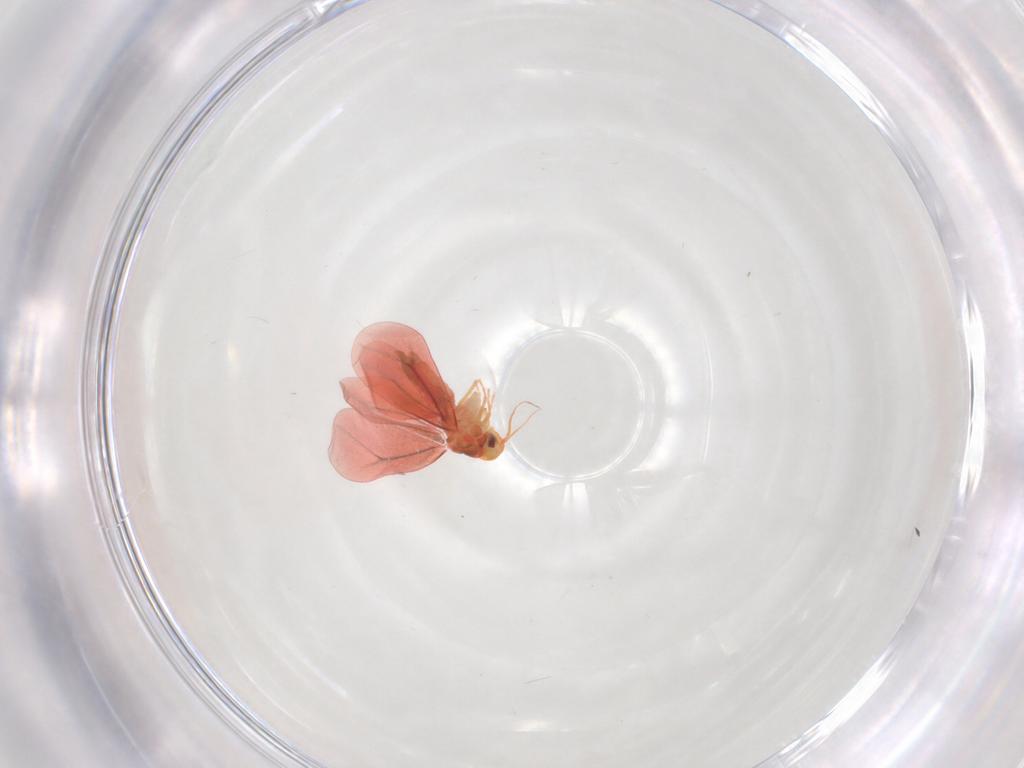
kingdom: Animalia
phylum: Arthropoda
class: Insecta
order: Hemiptera
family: Aleyrodidae
